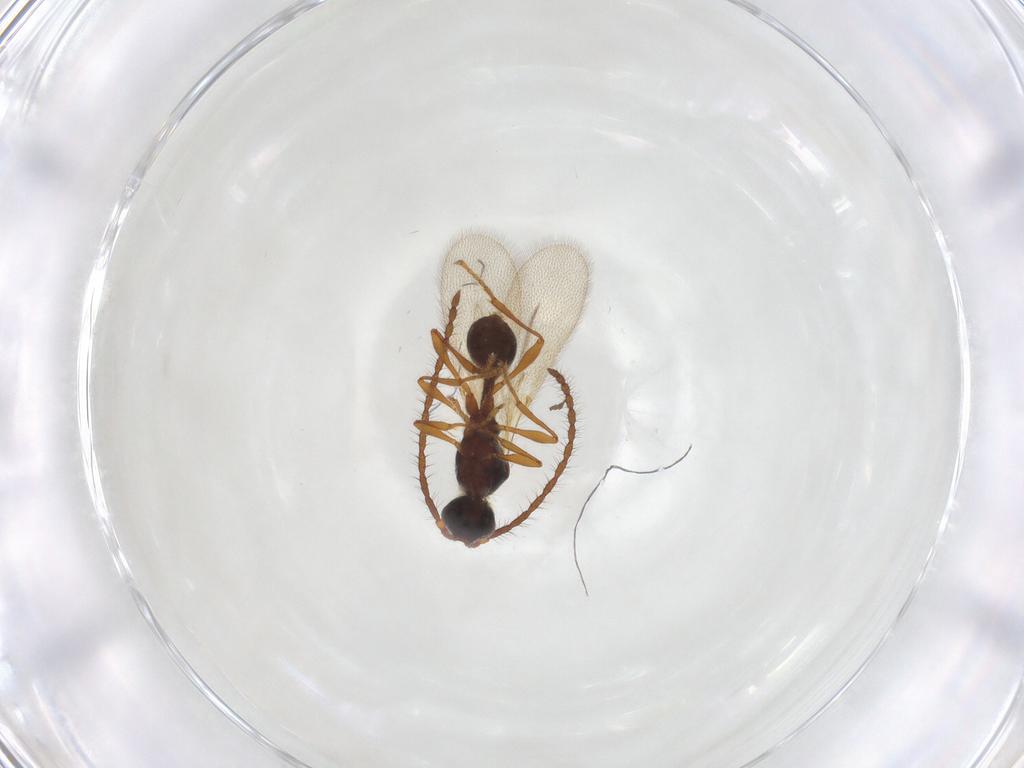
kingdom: Animalia
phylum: Arthropoda
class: Insecta
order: Hymenoptera
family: Diapriidae
